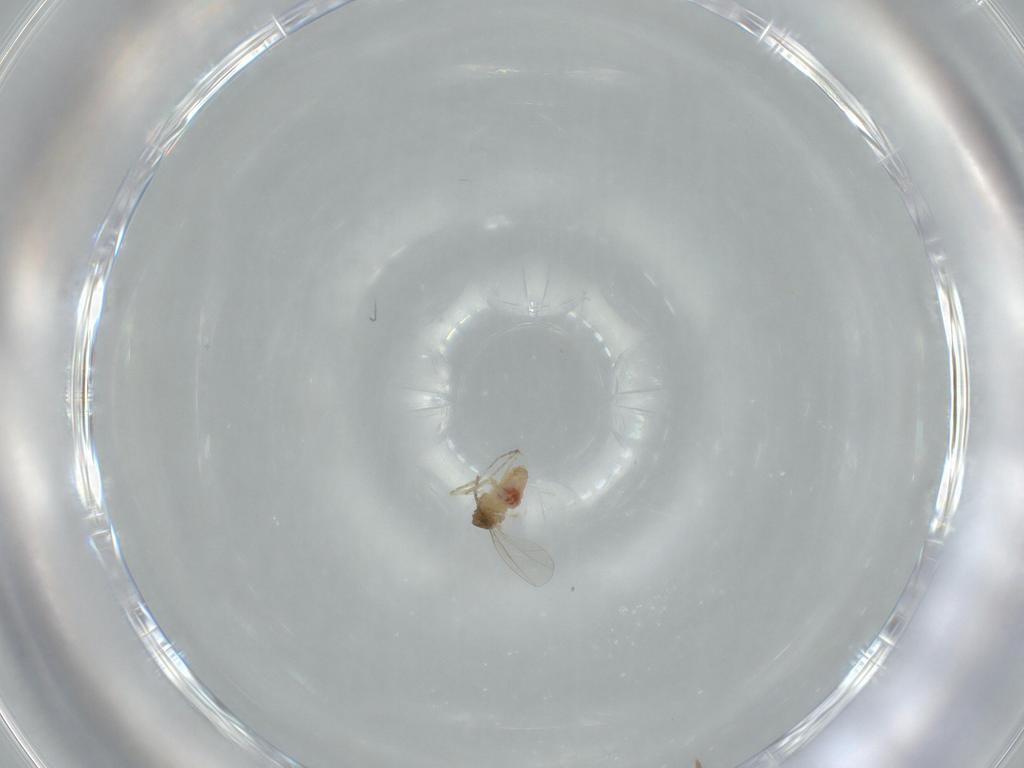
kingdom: Animalia
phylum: Arthropoda
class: Insecta
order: Diptera
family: Cecidomyiidae
